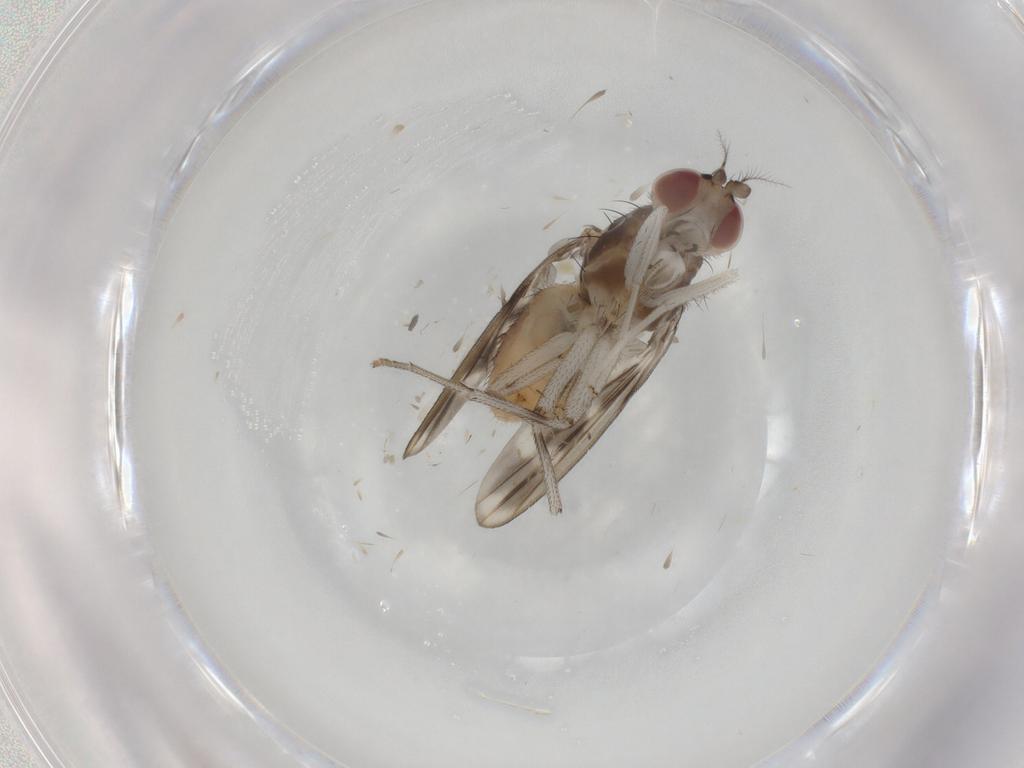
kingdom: Animalia
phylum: Arthropoda
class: Insecta
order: Diptera
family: Lauxaniidae
